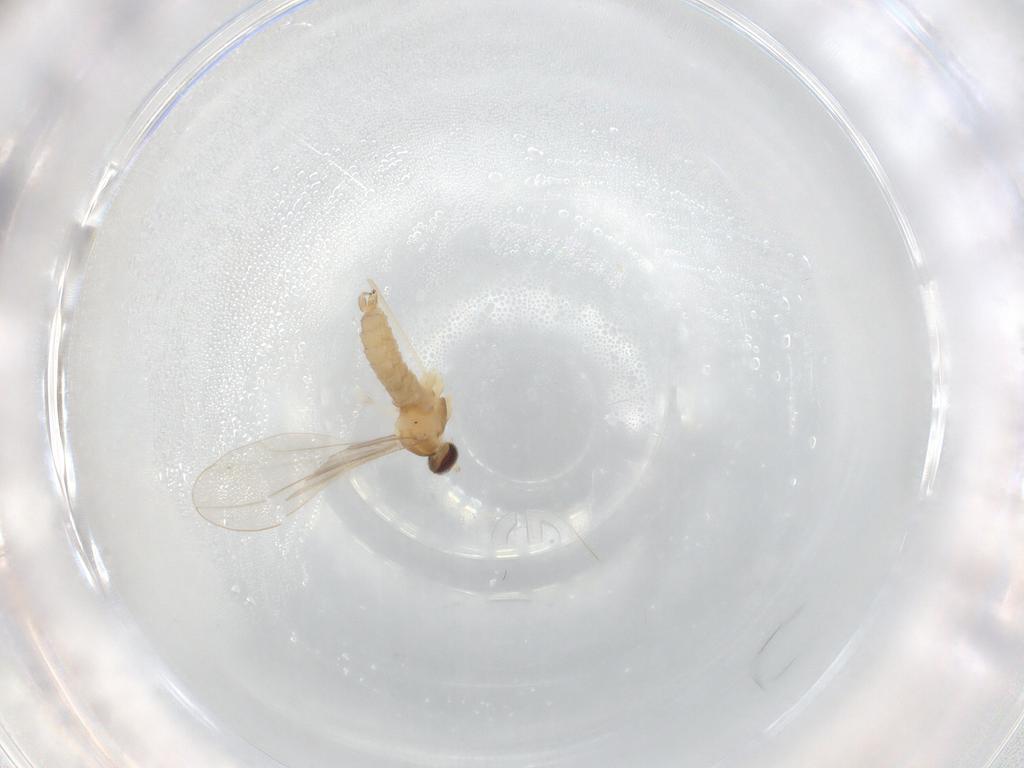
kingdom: Animalia
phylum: Arthropoda
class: Insecta
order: Diptera
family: Cecidomyiidae
